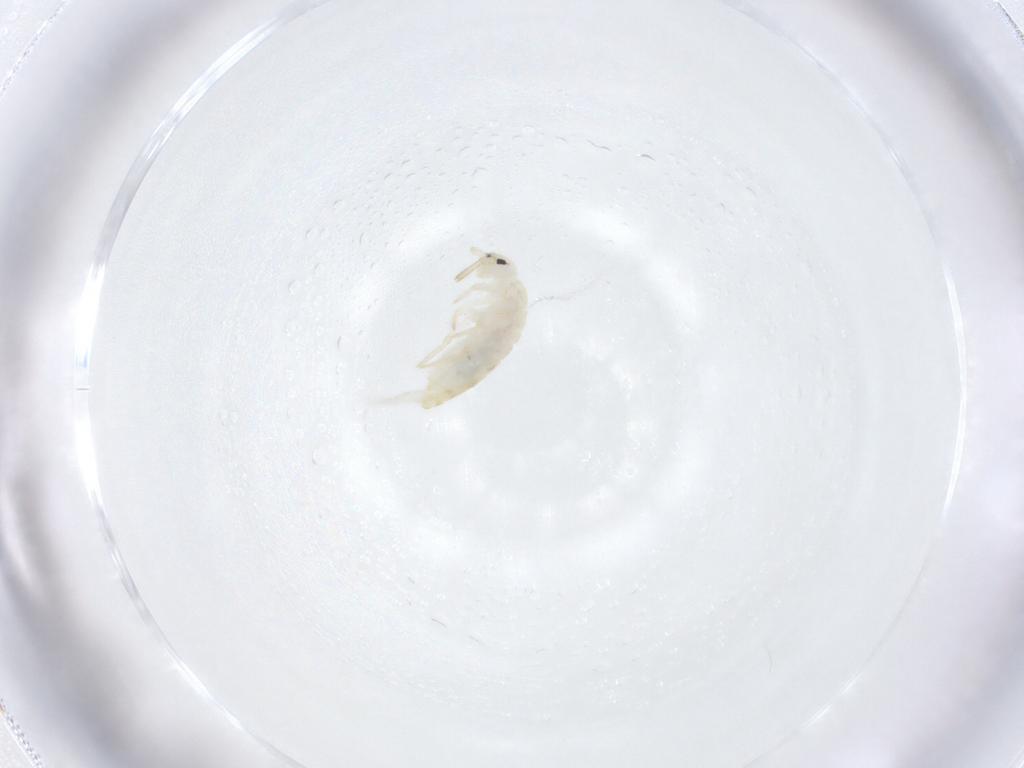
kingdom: Animalia
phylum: Arthropoda
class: Collembola
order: Entomobryomorpha
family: Entomobryidae
